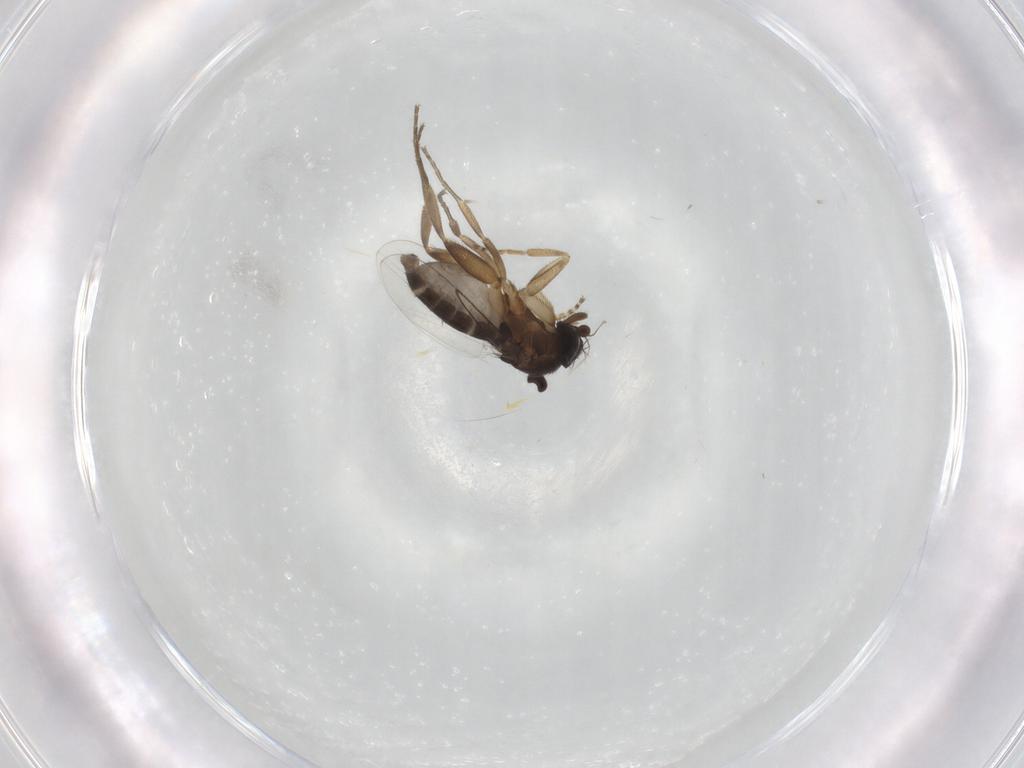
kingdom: Animalia
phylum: Arthropoda
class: Insecta
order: Diptera
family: Phoridae
